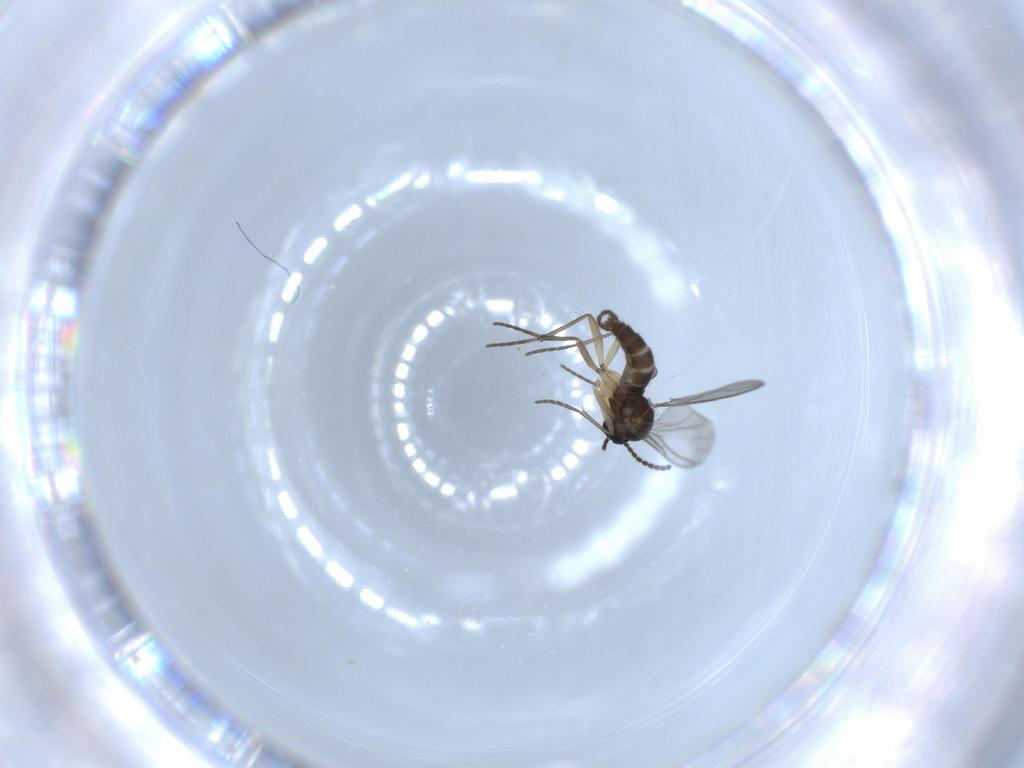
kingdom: Animalia
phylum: Arthropoda
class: Insecta
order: Diptera
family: Sciaridae
